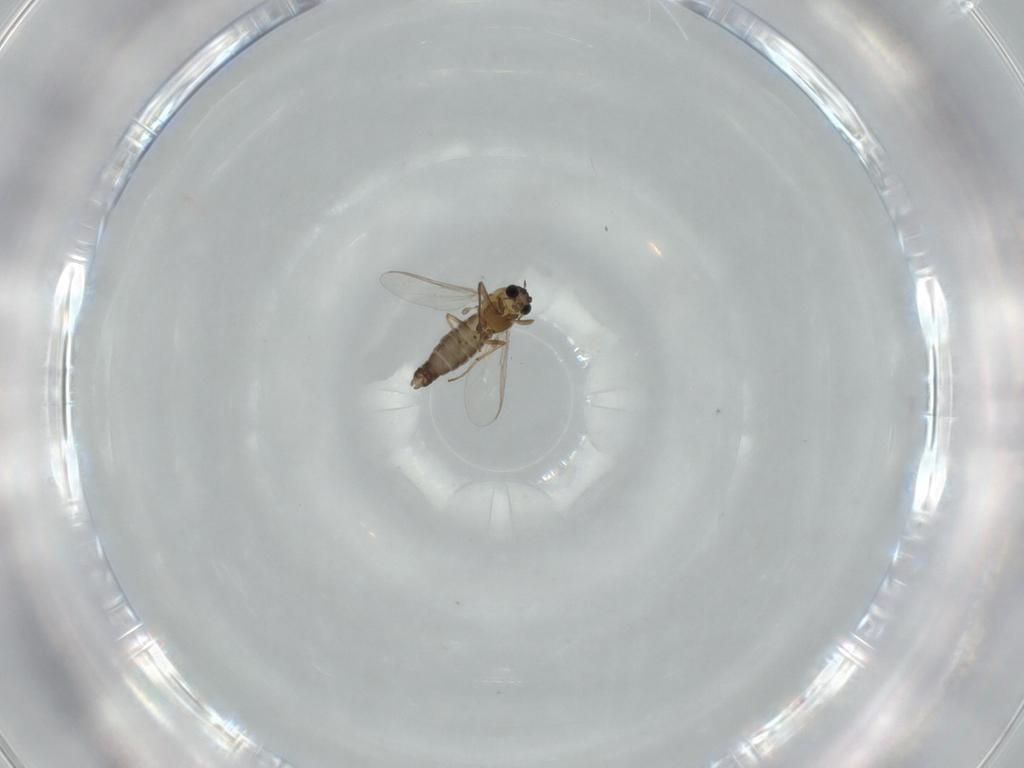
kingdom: Animalia
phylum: Arthropoda
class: Insecta
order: Diptera
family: Chironomidae
